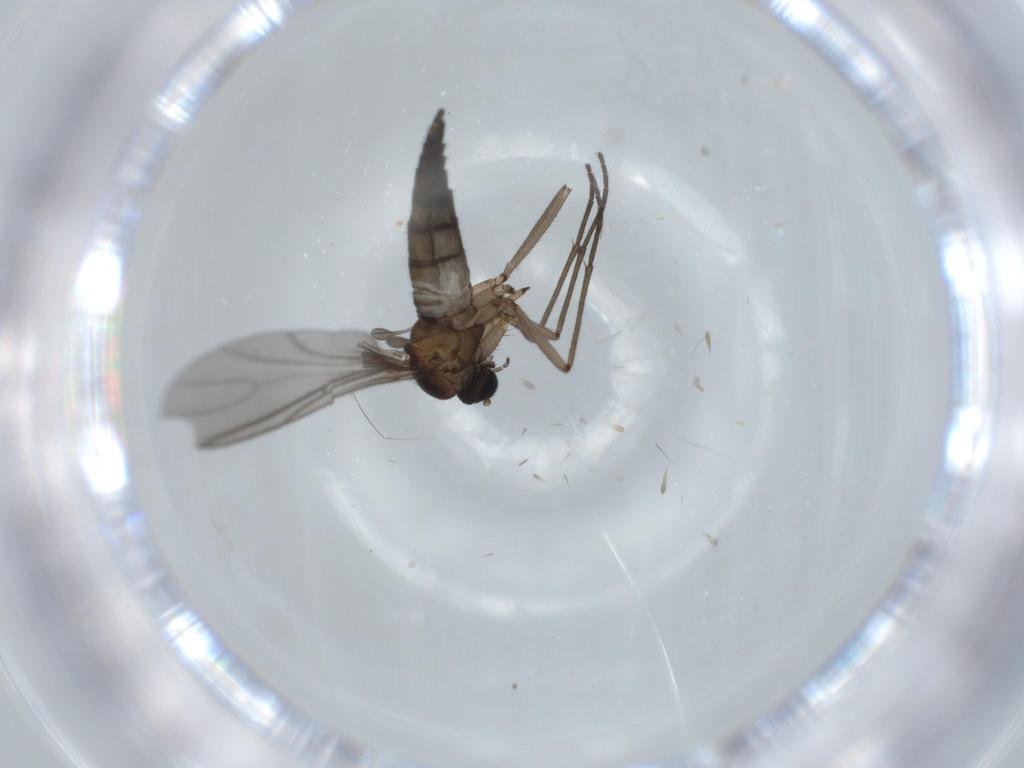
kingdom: Animalia
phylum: Arthropoda
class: Insecta
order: Diptera
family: Sciaridae
